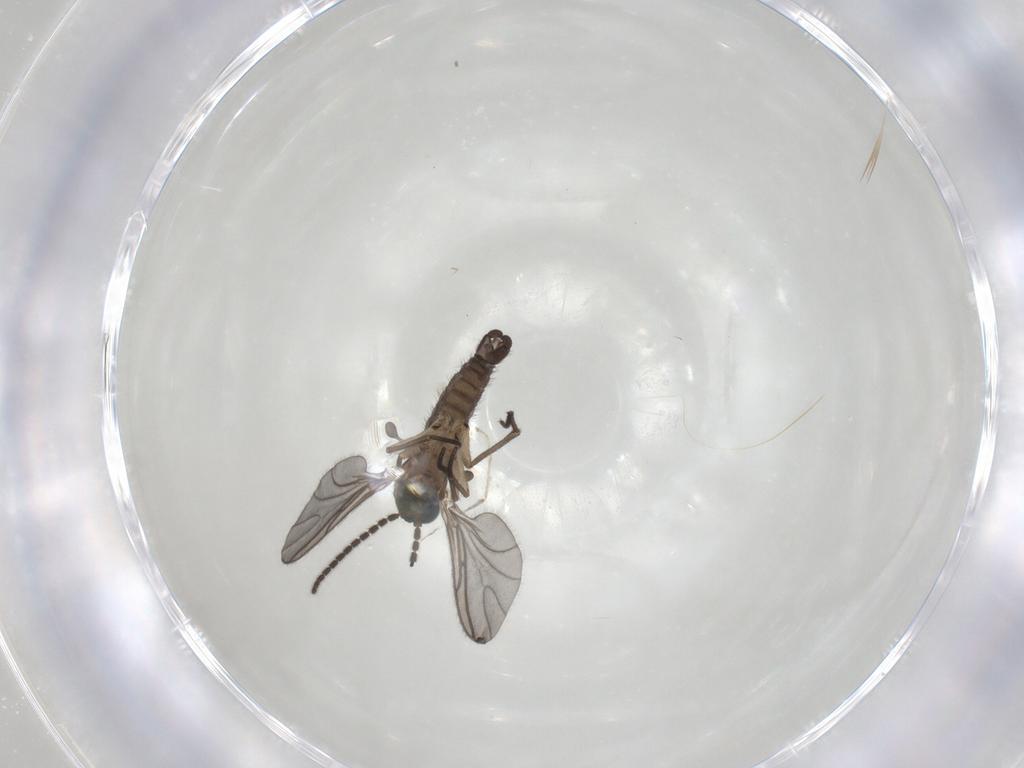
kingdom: Animalia
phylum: Arthropoda
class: Insecta
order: Diptera
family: Sciaridae
